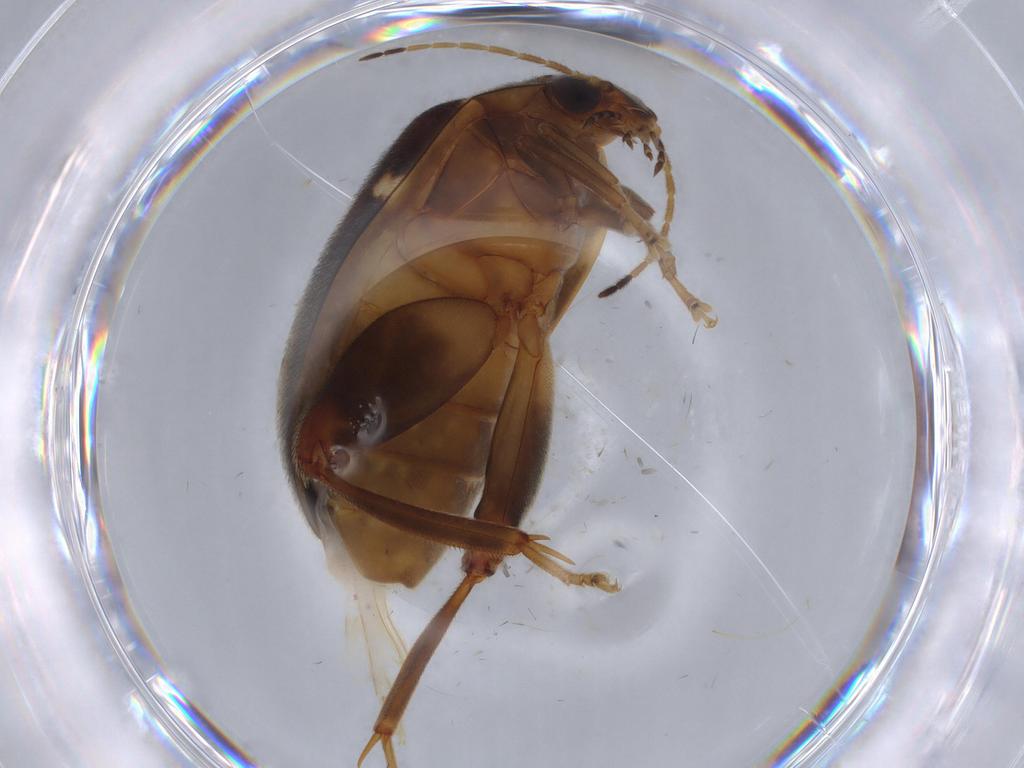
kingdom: Animalia
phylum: Arthropoda
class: Insecta
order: Coleoptera
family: Scirtidae
